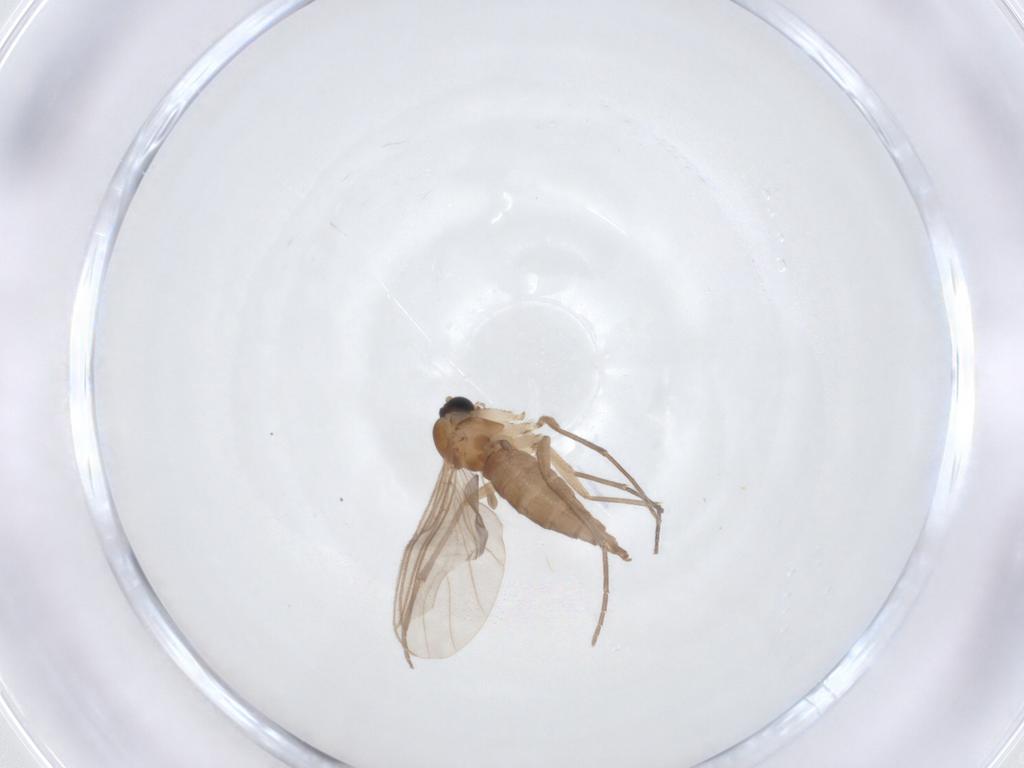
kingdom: Animalia
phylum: Arthropoda
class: Insecta
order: Diptera
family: Sciaridae
